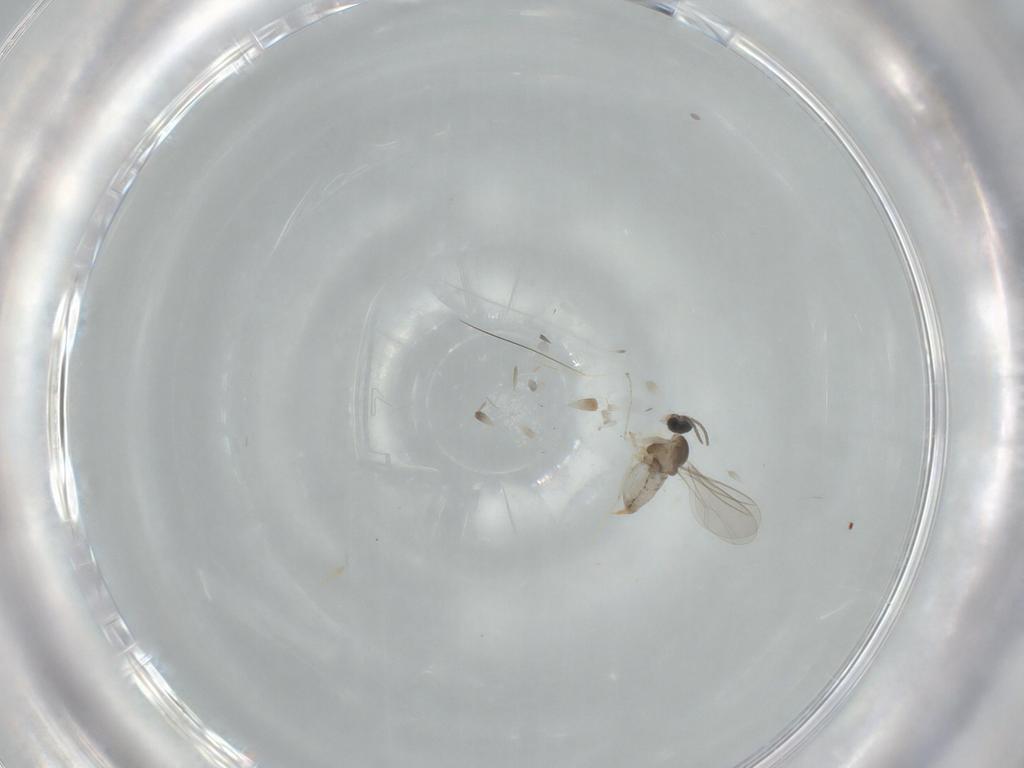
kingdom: Animalia
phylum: Arthropoda
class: Insecta
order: Diptera
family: Cecidomyiidae
